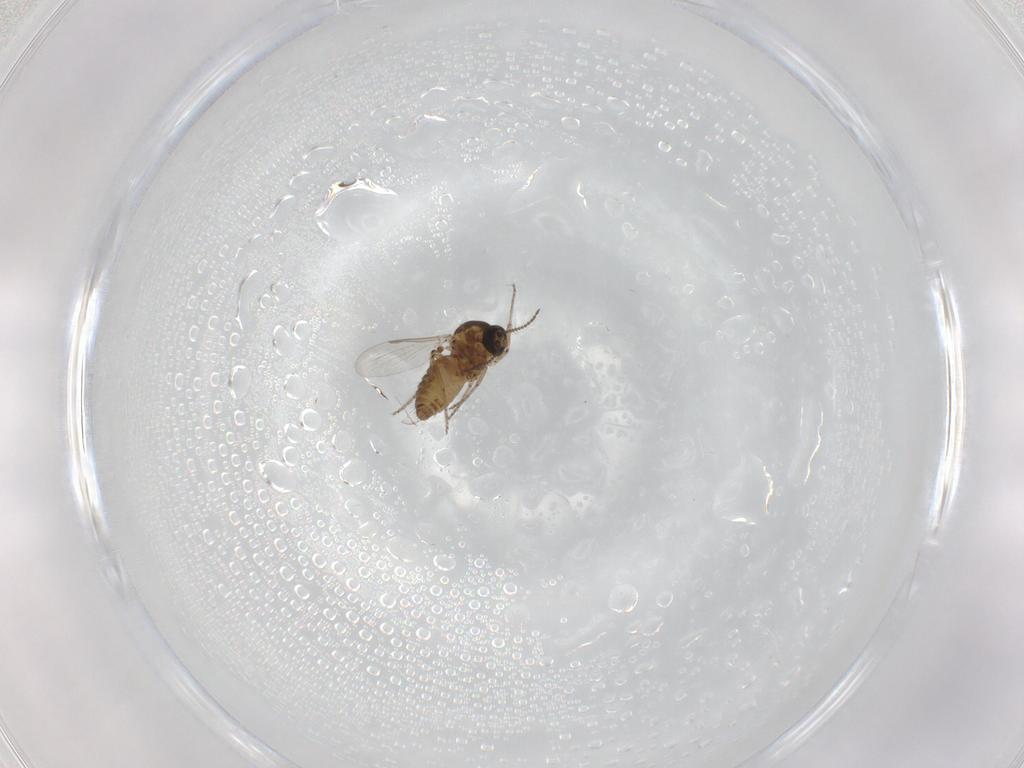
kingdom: Animalia
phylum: Arthropoda
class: Insecta
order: Diptera
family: Ceratopogonidae
